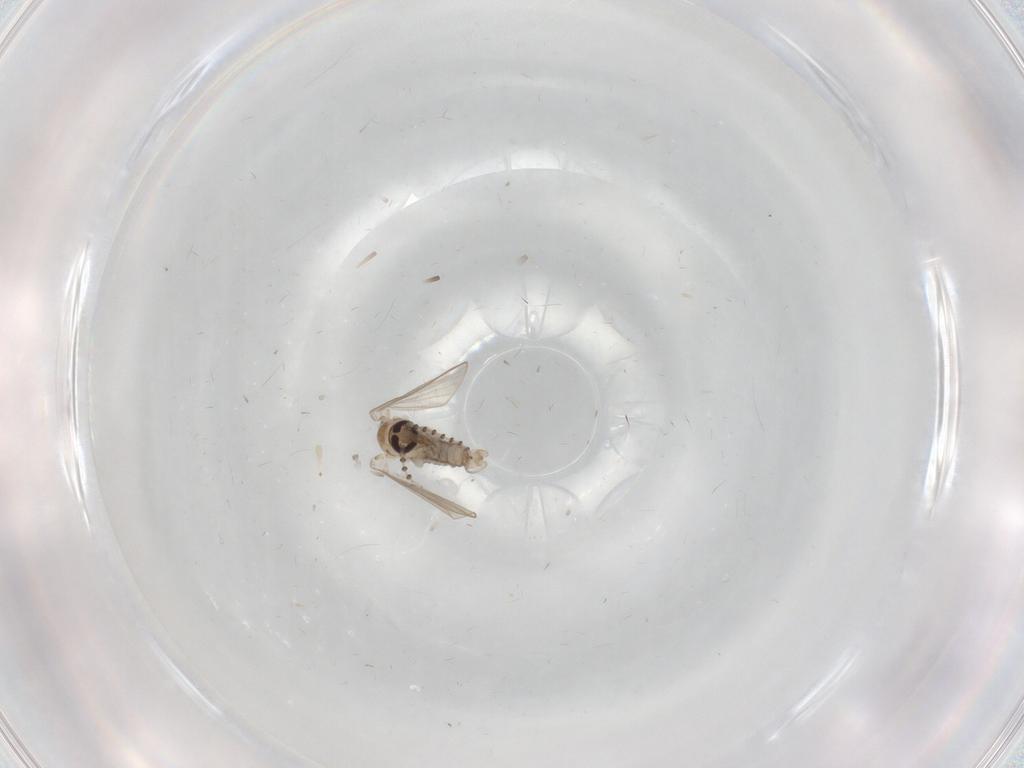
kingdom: Animalia
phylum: Arthropoda
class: Insecta
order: Diptera
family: Psychodidae
